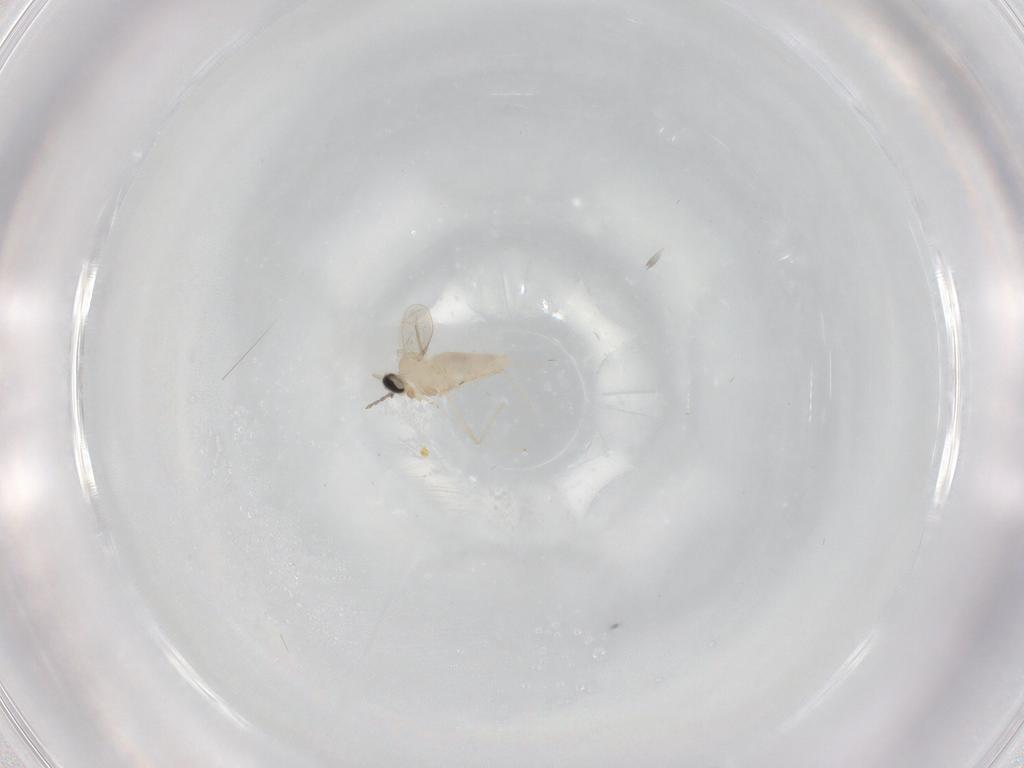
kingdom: Animalia
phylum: Arthropoda
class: Insecta
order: Diptera
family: Cecidomyiidae
